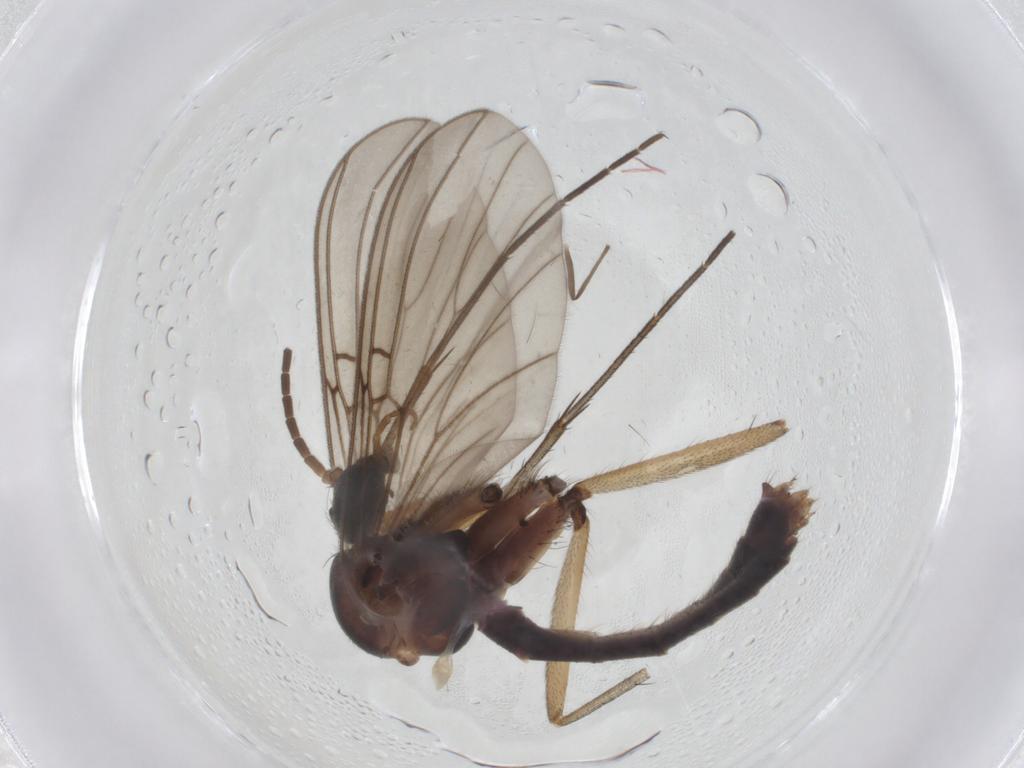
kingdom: Animalia
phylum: Arthropoda
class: Insecta
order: Diptera
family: Mycetophilidae
